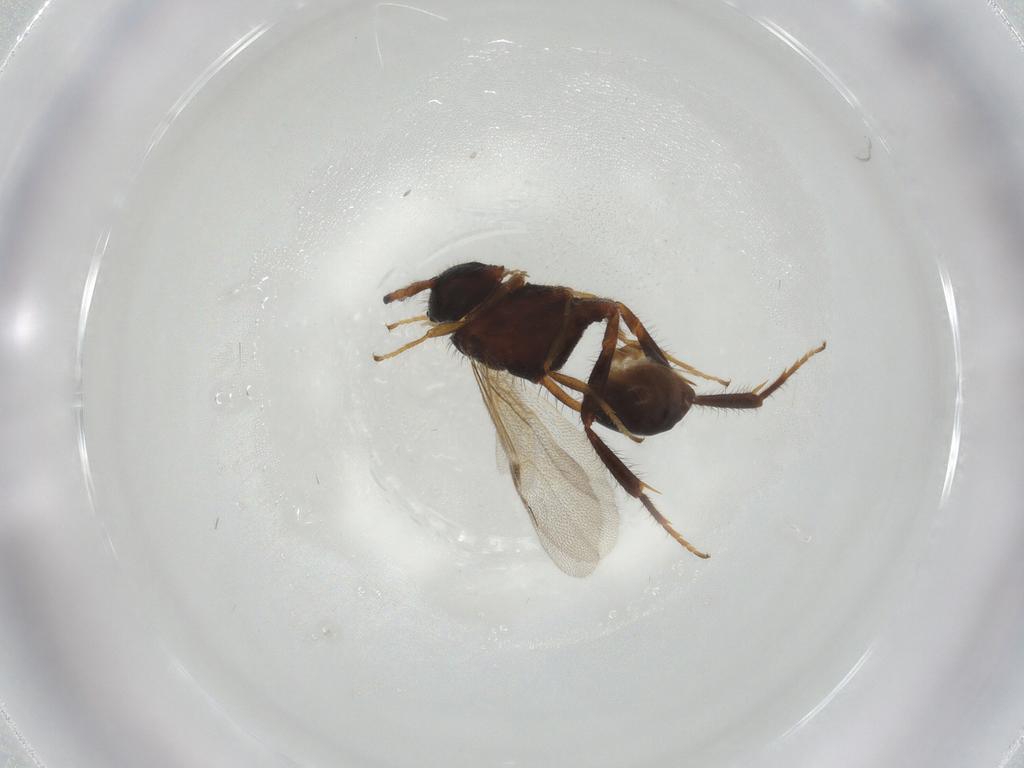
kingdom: Animalia
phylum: Arthropoda
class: Insecta
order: Hymenoptera
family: Evaniidae
